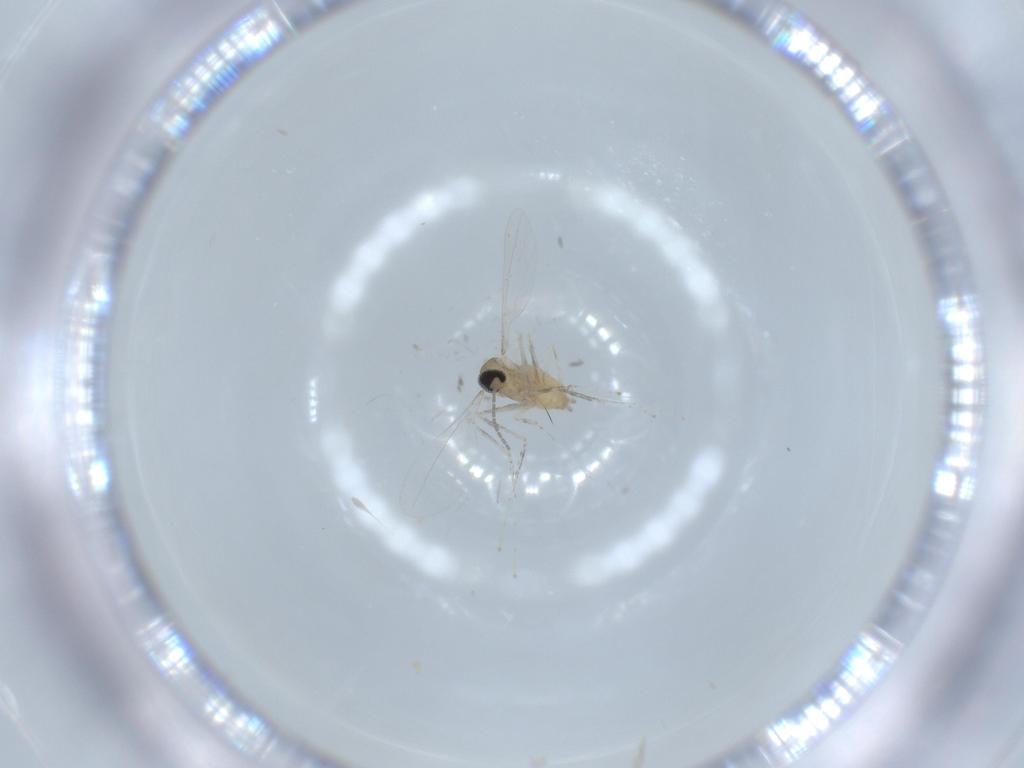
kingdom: Animalia
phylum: Arthropoda
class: Insecta
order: Diptera
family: Cecidomyiidae
